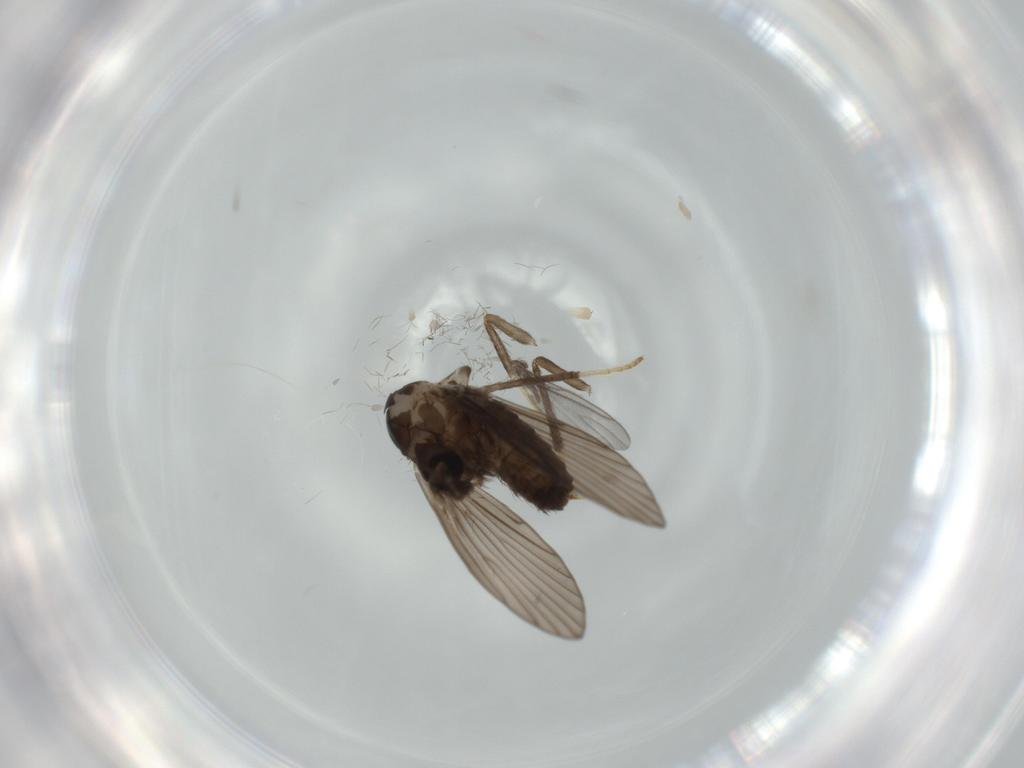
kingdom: Animalia
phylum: Arthropoda
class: Insecta
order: Diptera
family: Psychodidae
